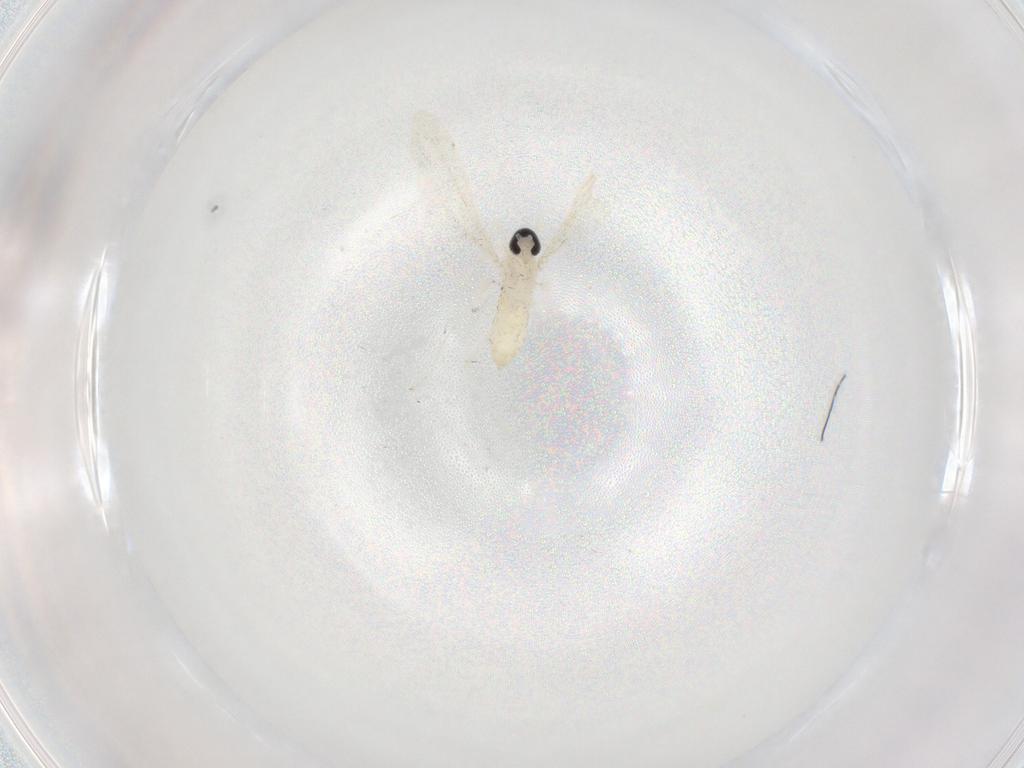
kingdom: Animalia
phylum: Arthropoda
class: Insecta
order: Diptera
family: Cecidomyiidae
